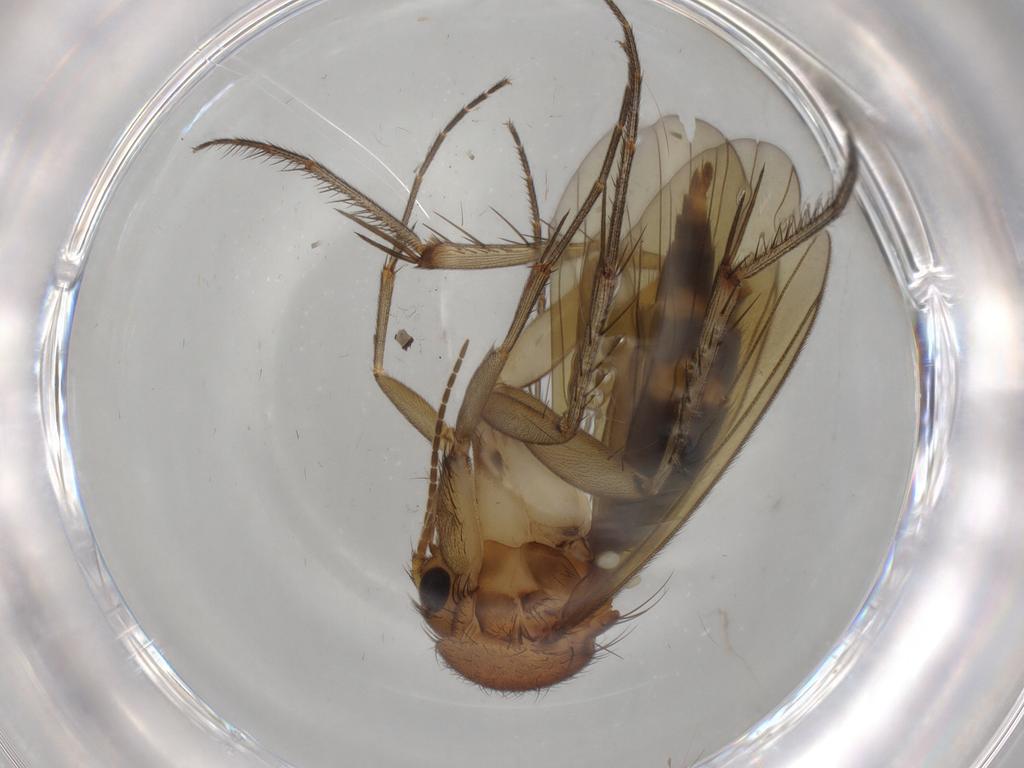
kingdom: Animalia
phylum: Arthropoda
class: Insecta
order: Diptera
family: Mycetophilidae
